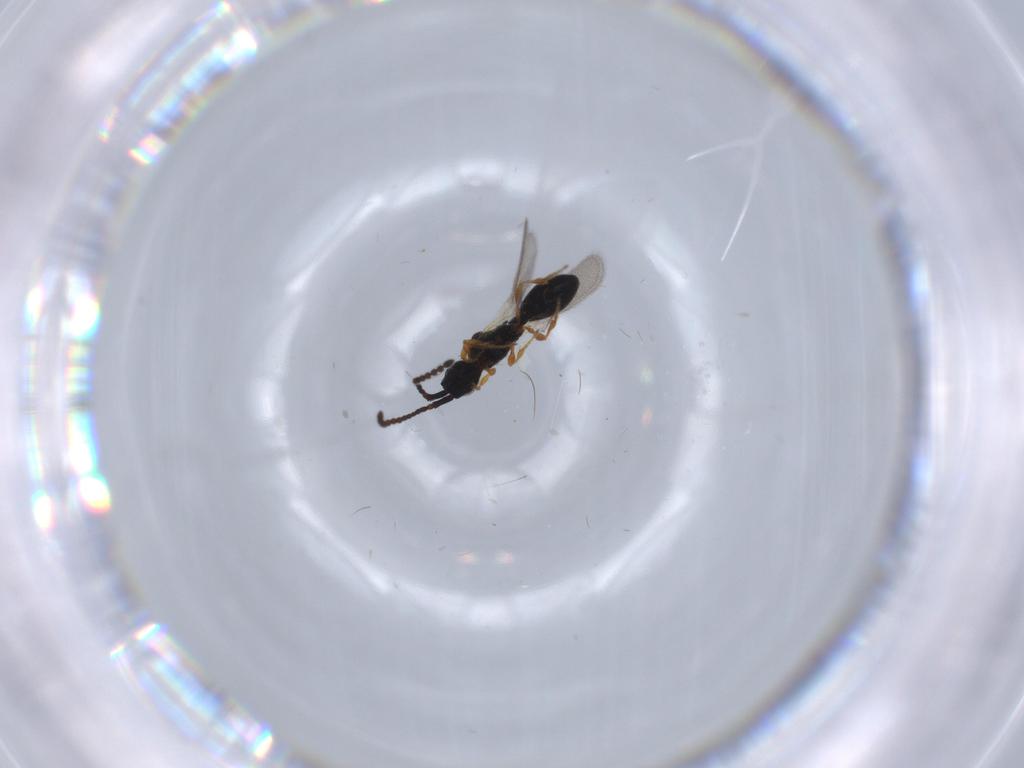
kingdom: Animalia
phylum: Arthropoda
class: Insecta
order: Hymenoptera
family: Diapriidae
